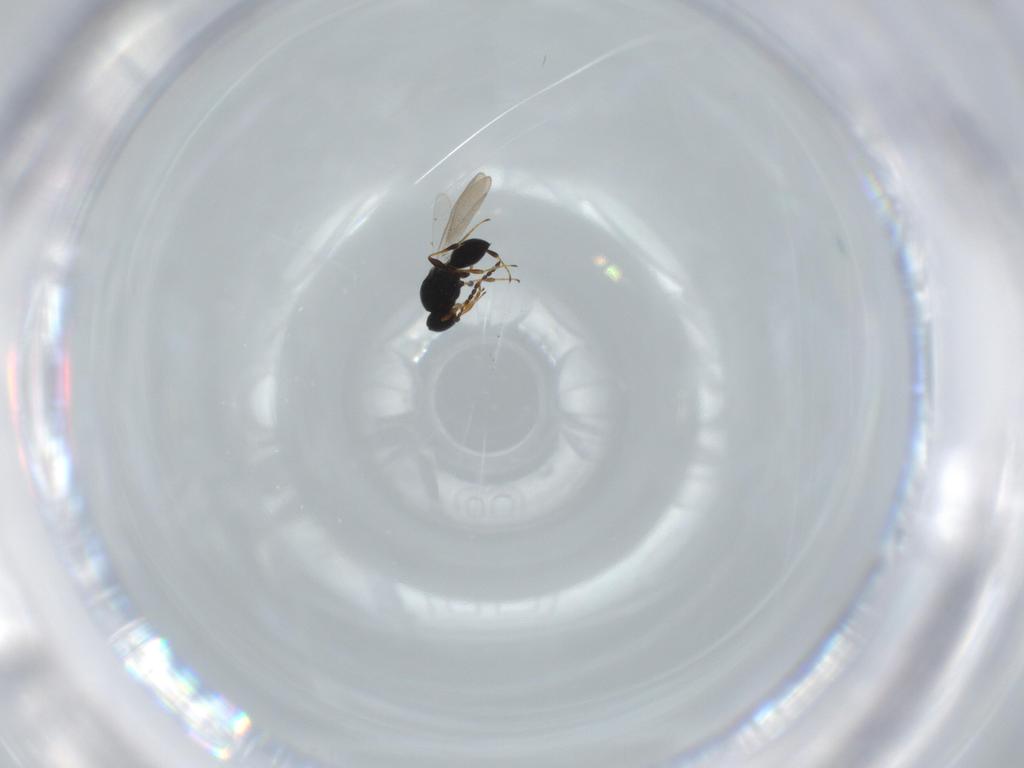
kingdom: Animalia
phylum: Arthropoda
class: Insecta
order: Hymenoptera
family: Platygastridae
